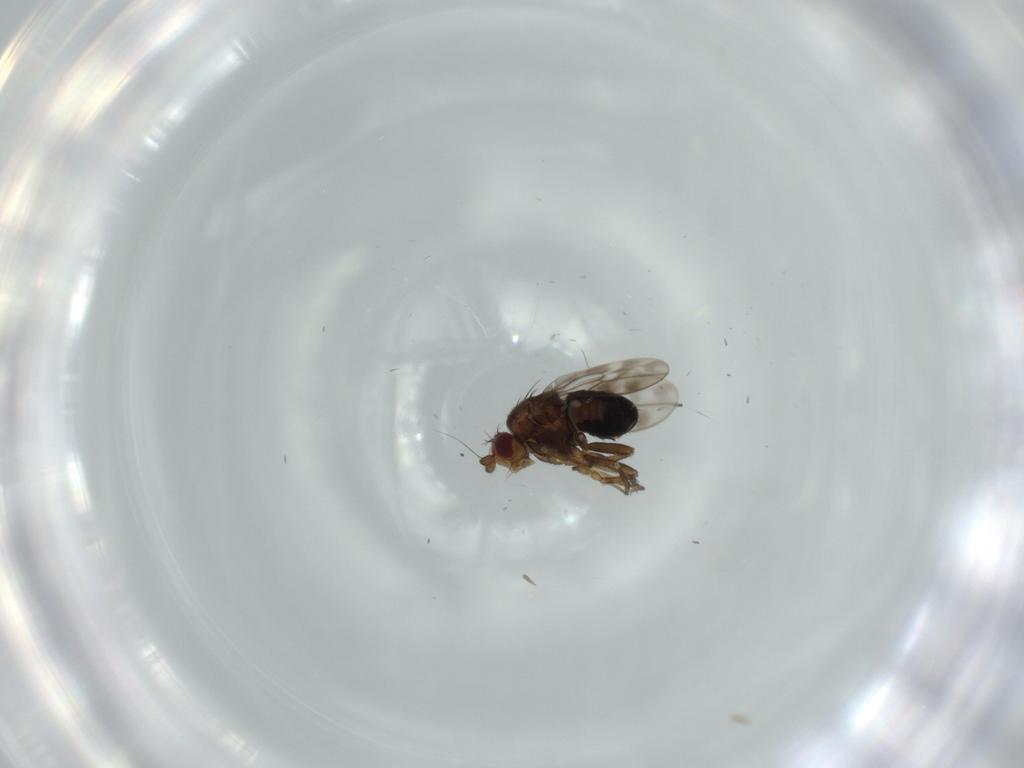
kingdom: Animalia
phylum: Arthropoda
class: Insecta
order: Diptera
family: Sphaeroceridae
